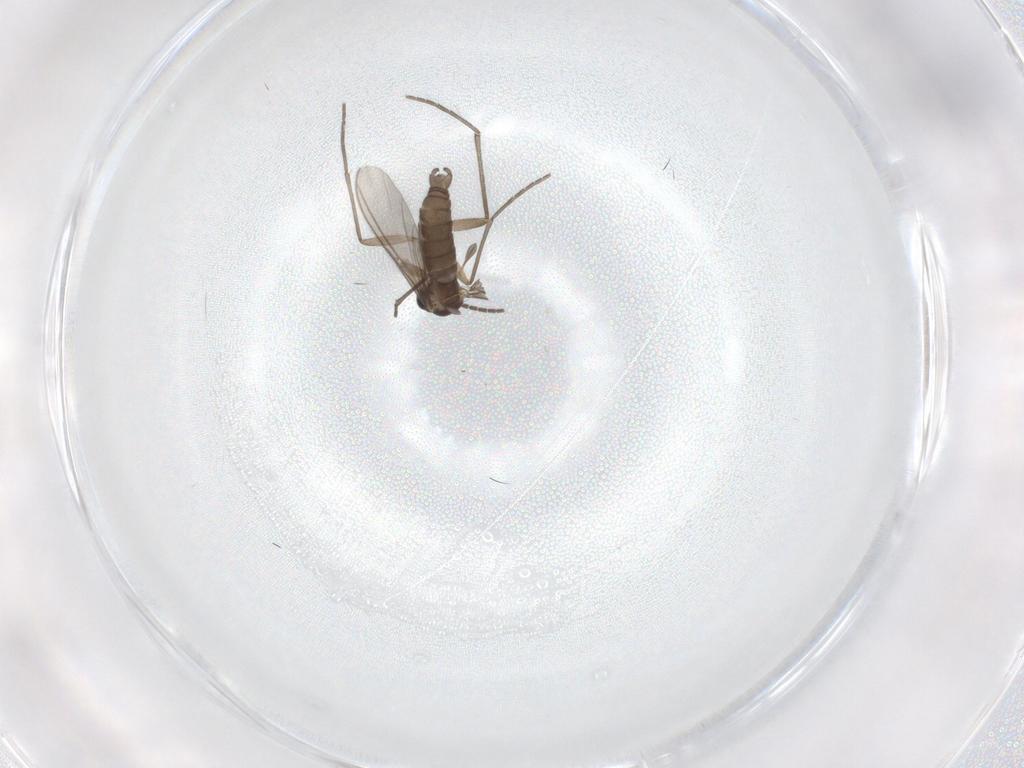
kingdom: Animalia
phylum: Arthropoda
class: Insecta
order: Diptera
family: Sciaridae
